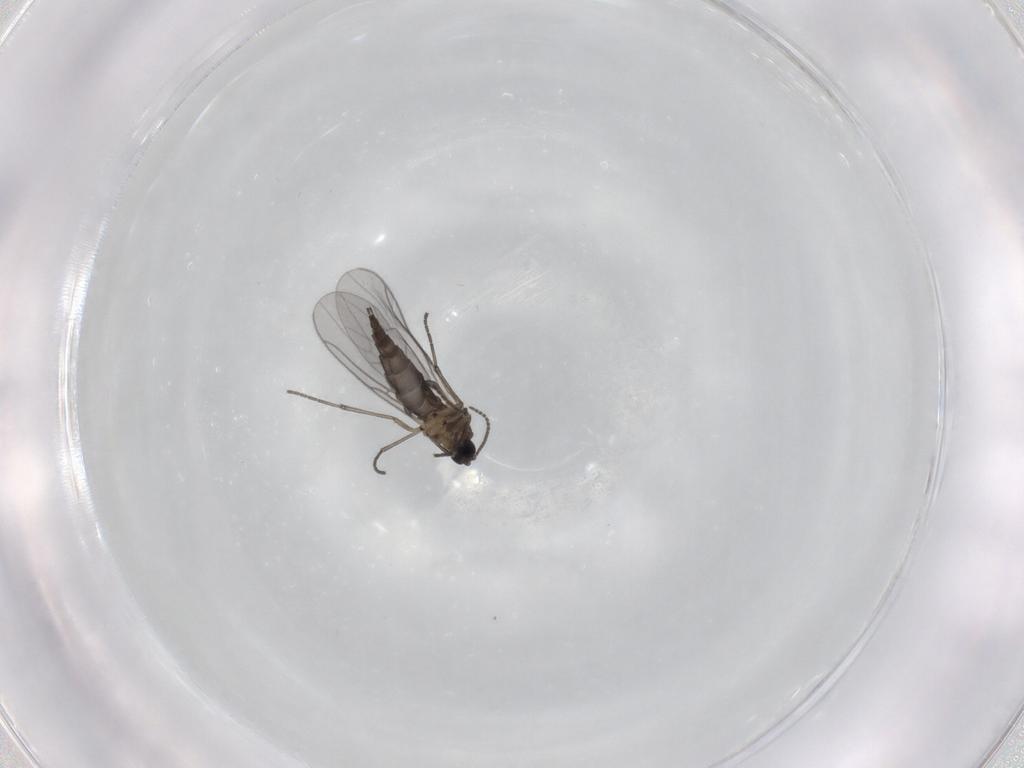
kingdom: Animalia
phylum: Arthropoda
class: Insecta
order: Diptera
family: Sciaridae
